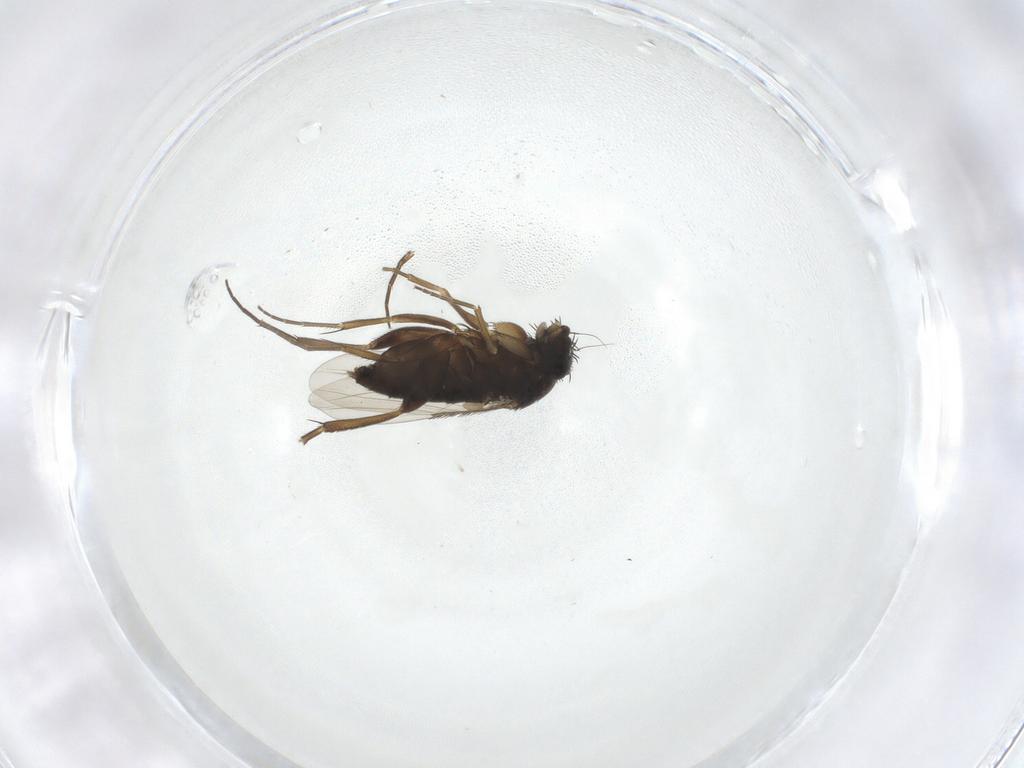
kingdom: Animalia
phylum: Arthropoda
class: Insecta
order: Diptera
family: Phoridae
